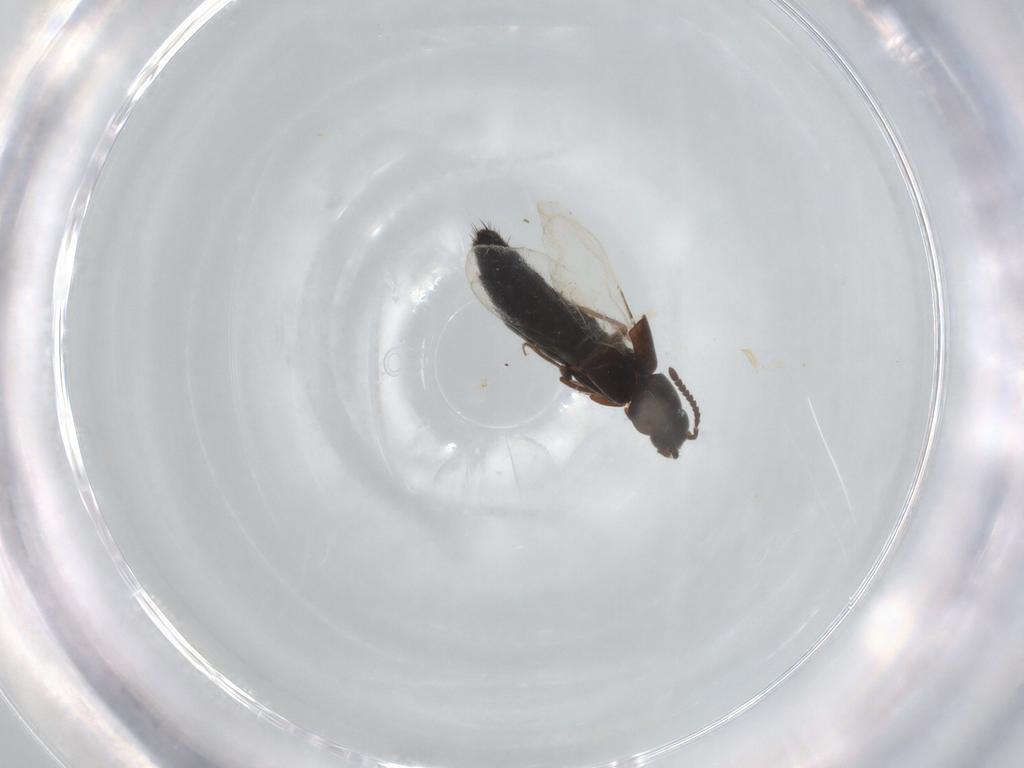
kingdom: Animalia
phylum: Arthropoda
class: Insecta
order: Coleoptera
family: Staphylinidae
